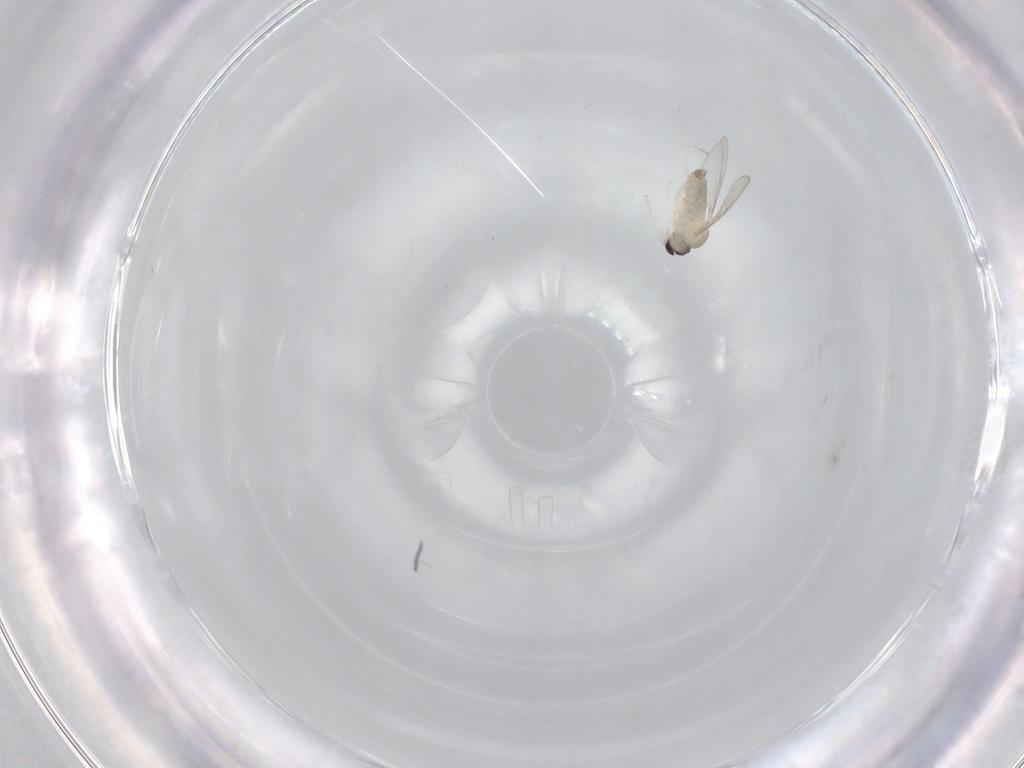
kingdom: Animalia
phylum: Arthropoda
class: Insecta
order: Diptera
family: Cecidomyiidae
